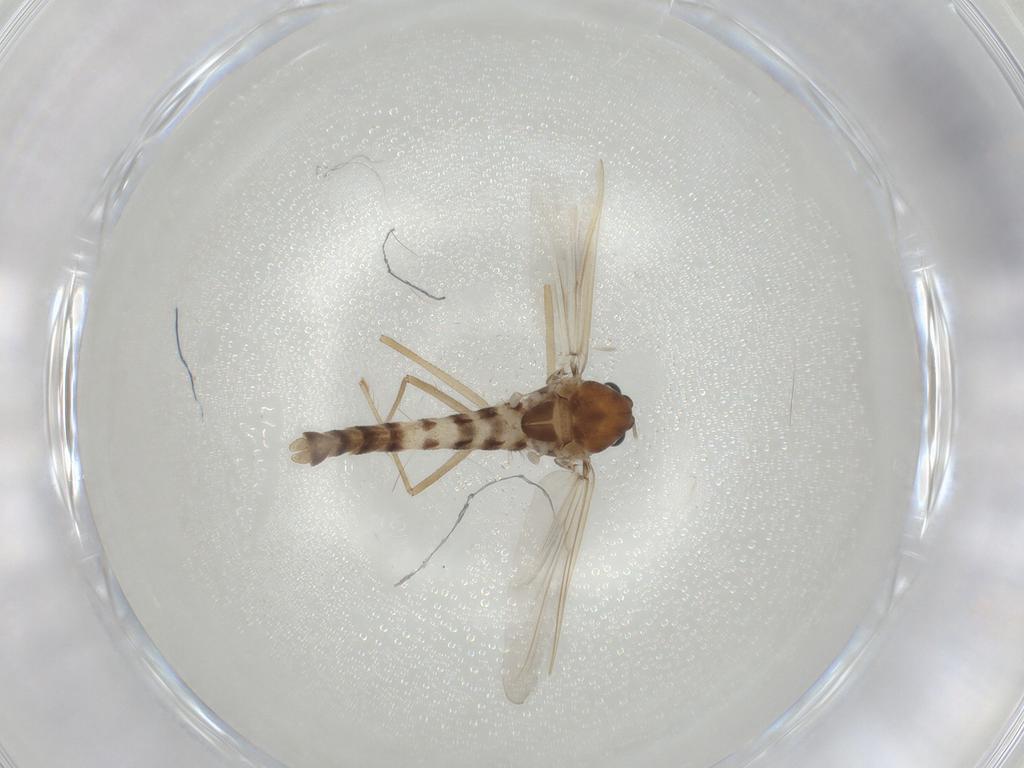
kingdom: Animalia
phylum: Arthropoda
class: Insecta
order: Diptera
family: Chironomidae
